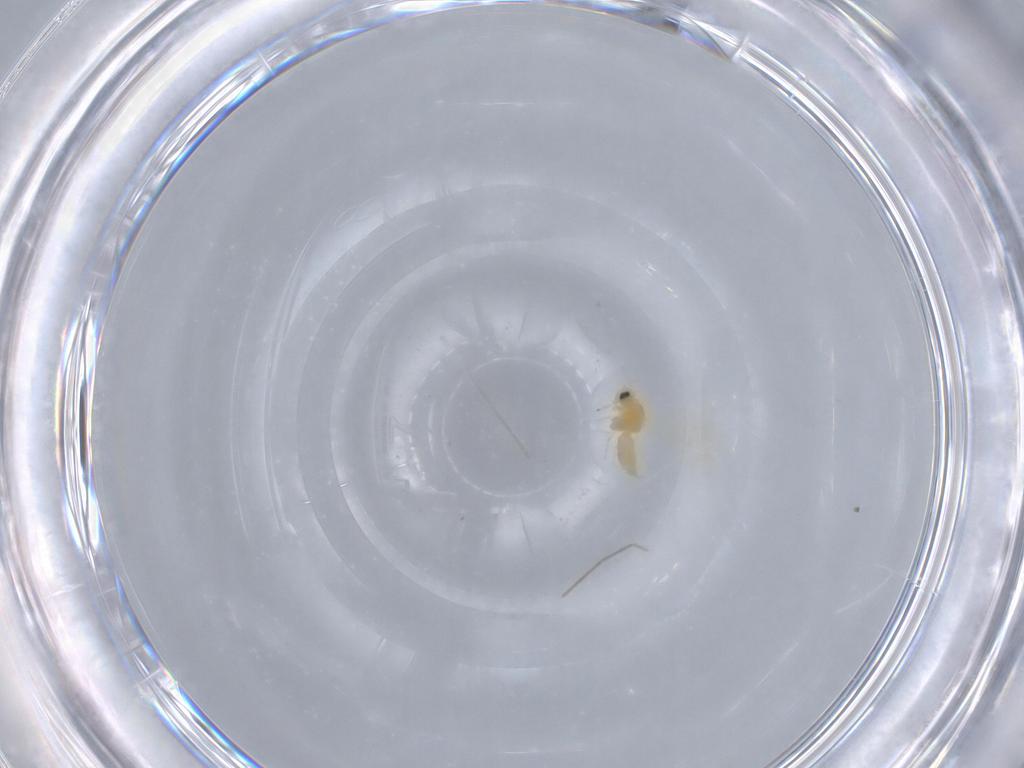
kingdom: Animalia
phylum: Arthropoda
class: Insecta
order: Hemiptera
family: Aleyrodidae
